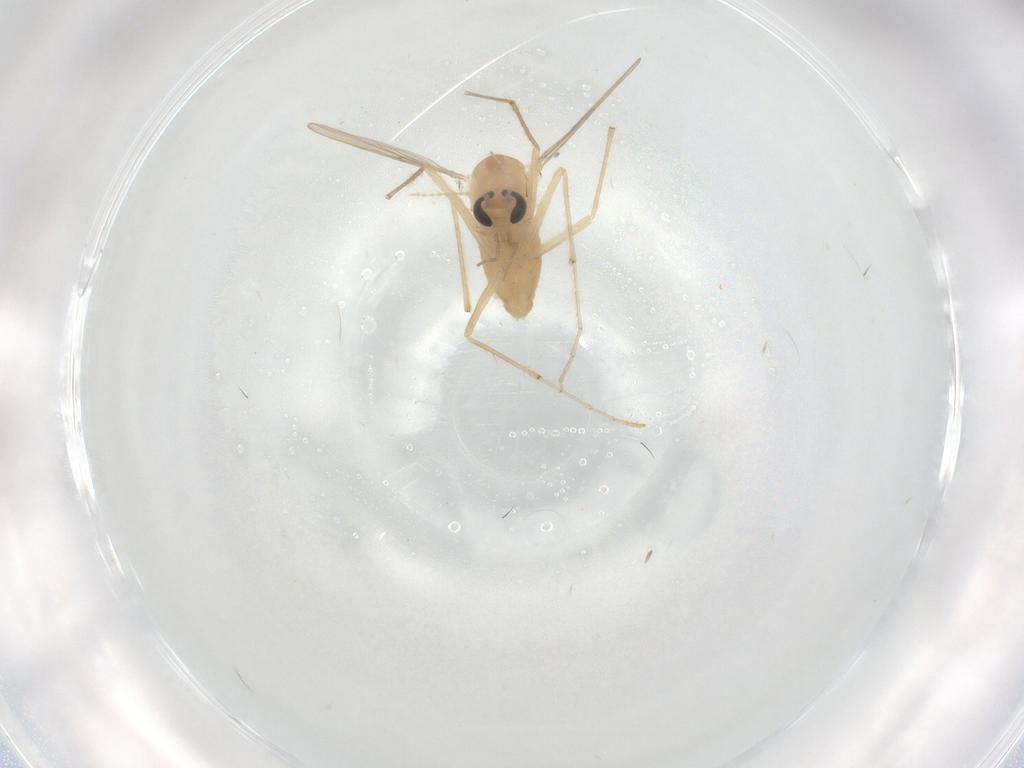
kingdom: Animalia
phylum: Arthropoda
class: Insecta
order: Diptera
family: Chironomidae
